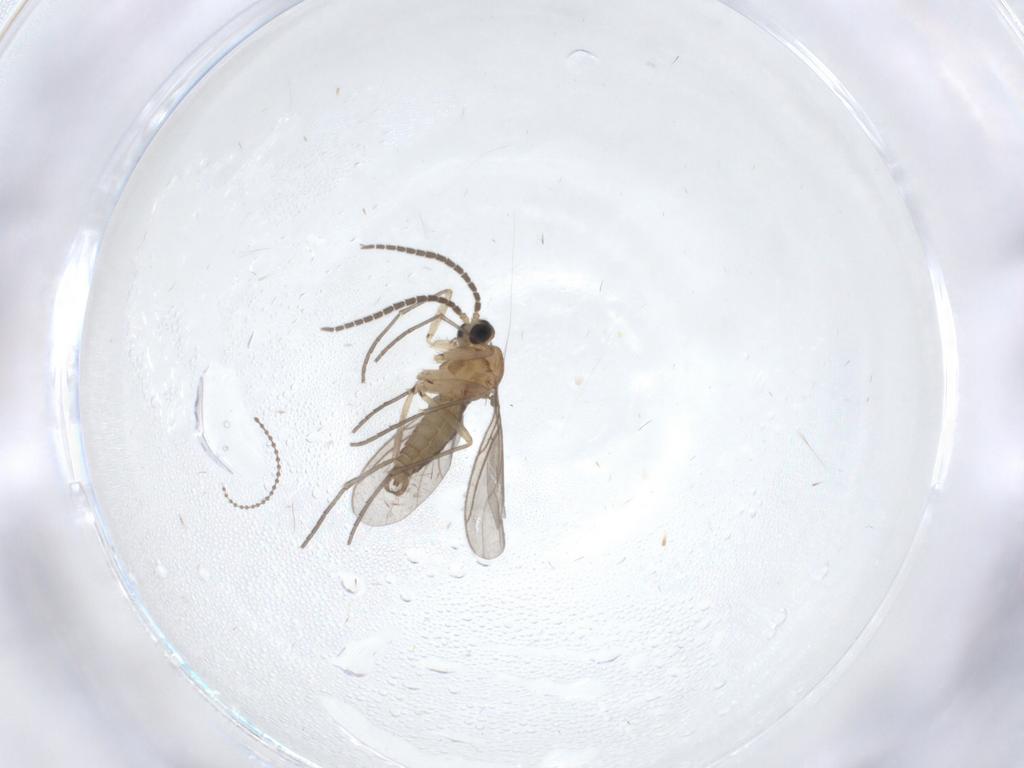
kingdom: Animalia
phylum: Arthropoda
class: Insecta
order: Diptera
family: Sciaridae
